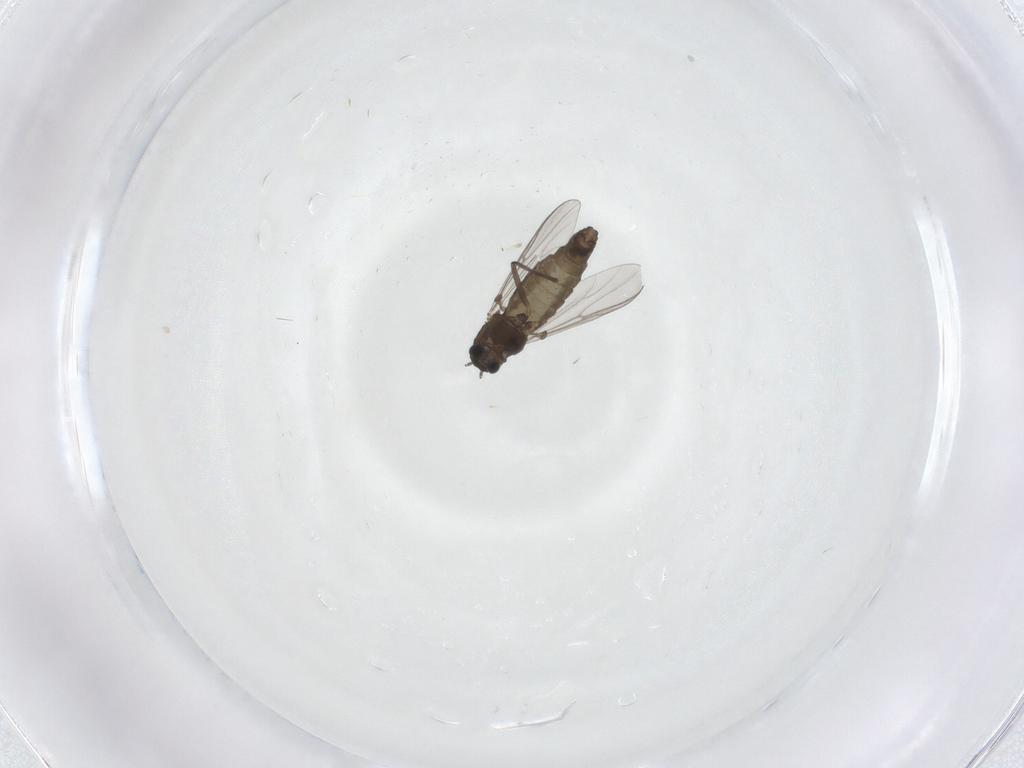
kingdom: Animalia
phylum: Arthropoda
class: Insecta
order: Diptera
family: Chironomidae
